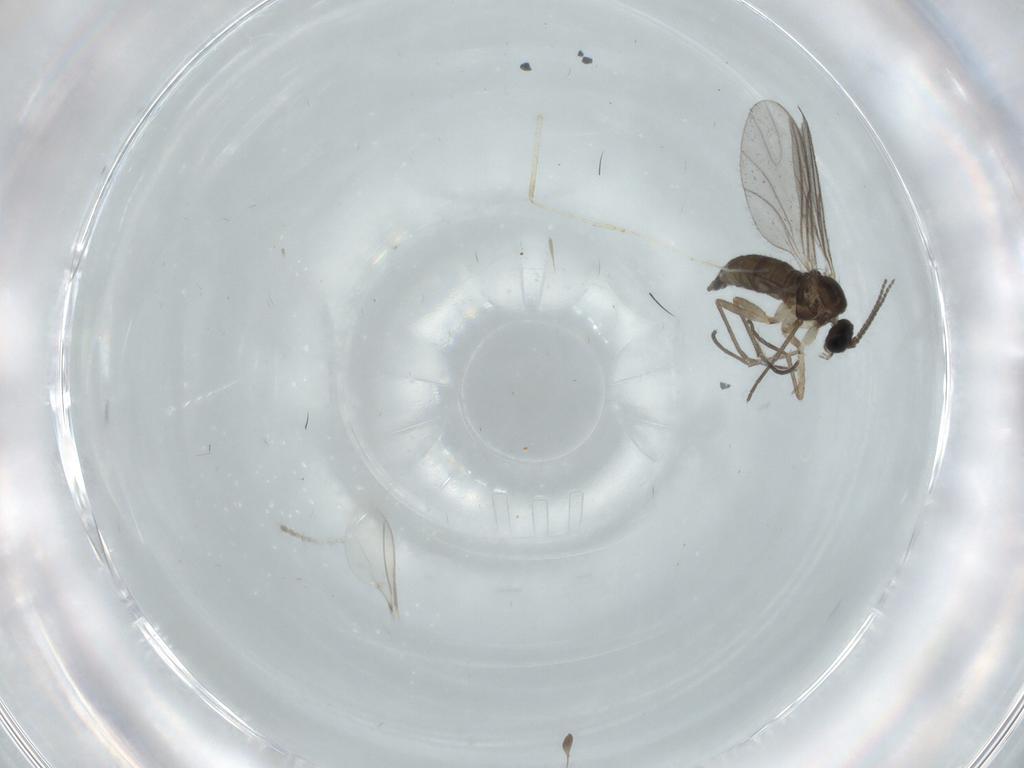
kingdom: Animalia
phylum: Arthropoda
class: Insecta
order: Diptera
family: Sciaridae
